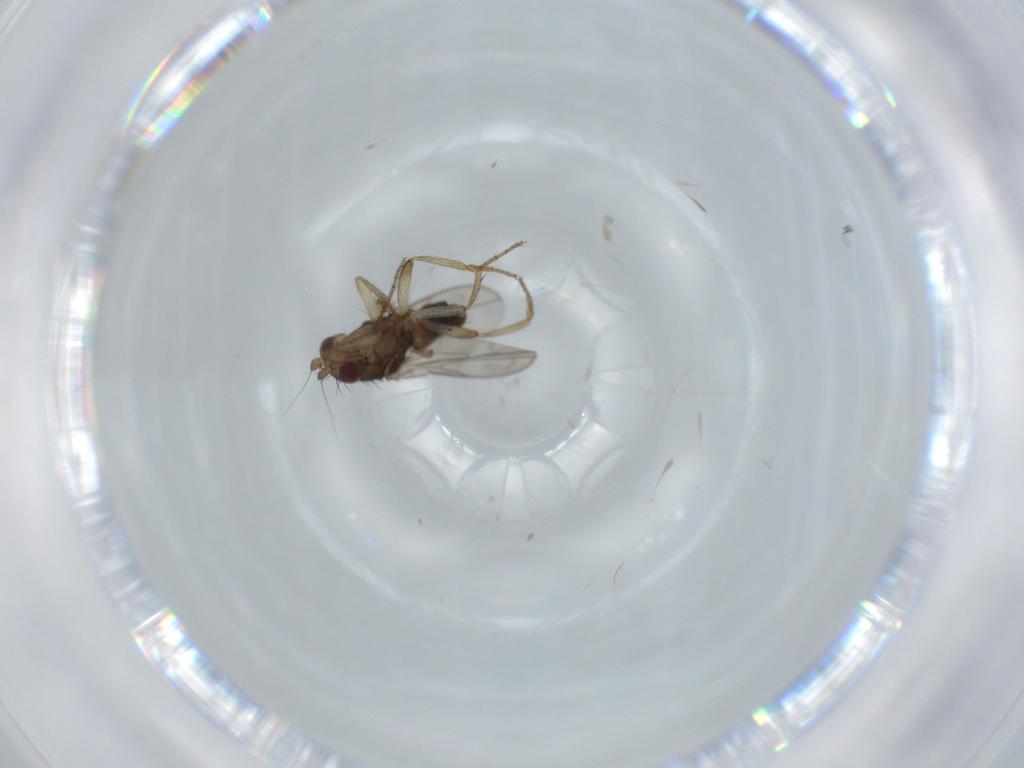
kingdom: Animalia
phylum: Arthropoda
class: Insecta
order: Diptera
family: Sphaeroceridae
